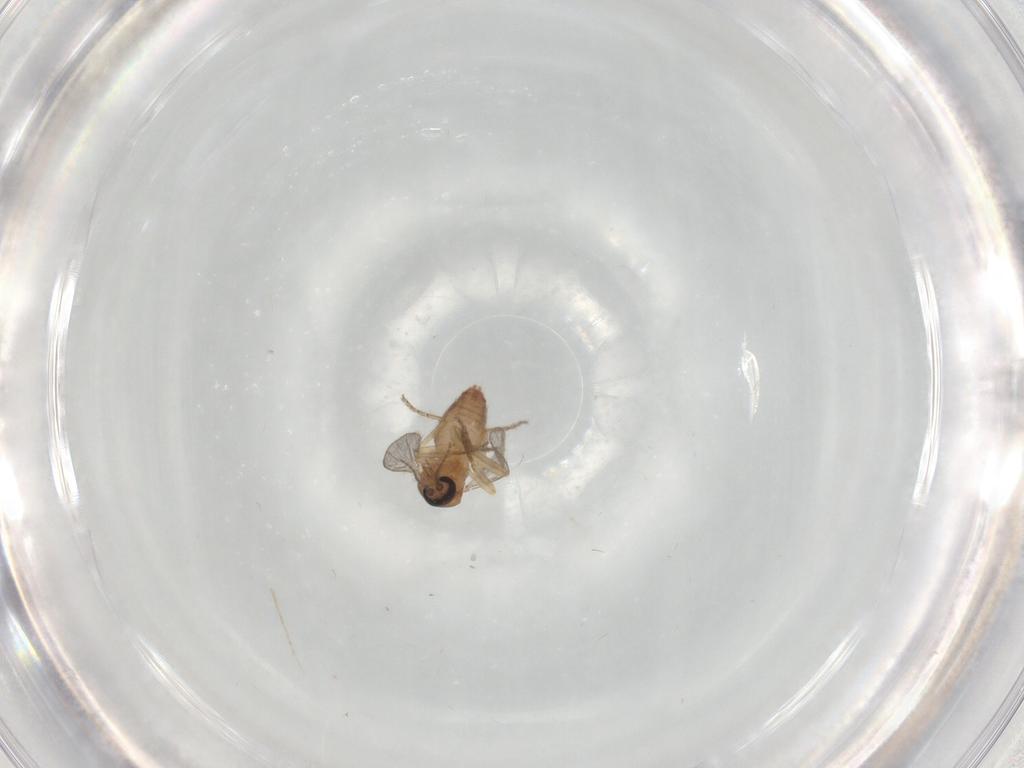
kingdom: Animalia
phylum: Arthropoda
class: Insecta
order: Diptera
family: Ceratopogonidae
